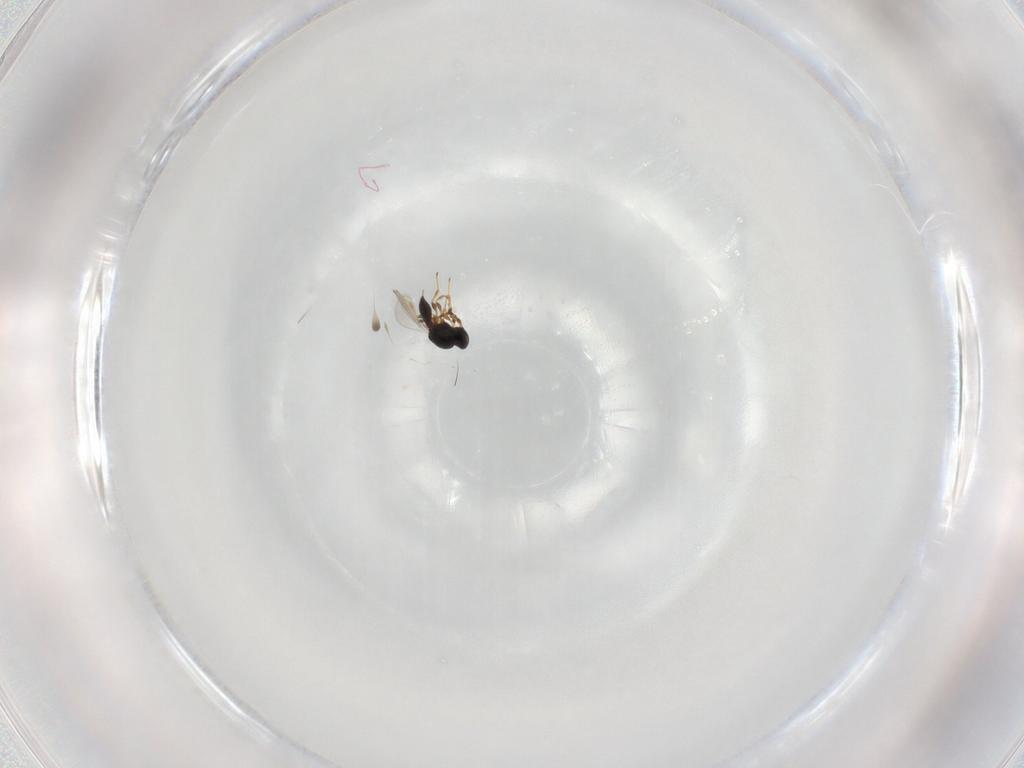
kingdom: Animalia
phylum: Arthropoda
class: Insecta
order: Hymenoptera
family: Platygastridae
